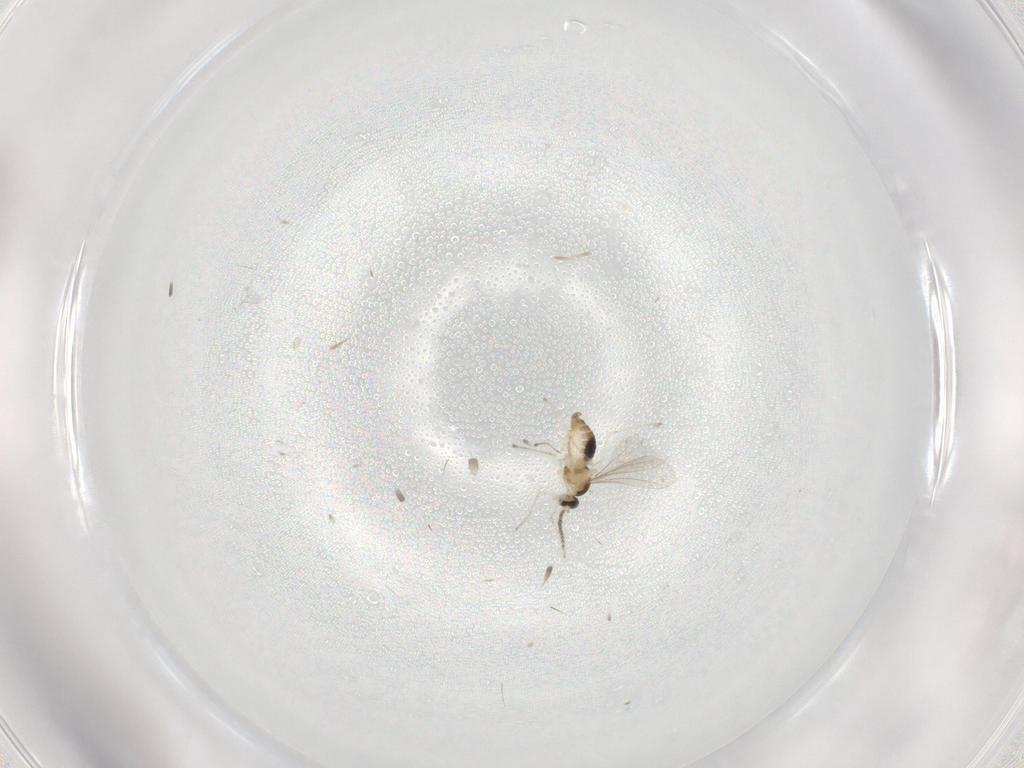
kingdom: Animalia
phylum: Arthropoda
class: Insecta
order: Diptera
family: Cecidomyiidae
